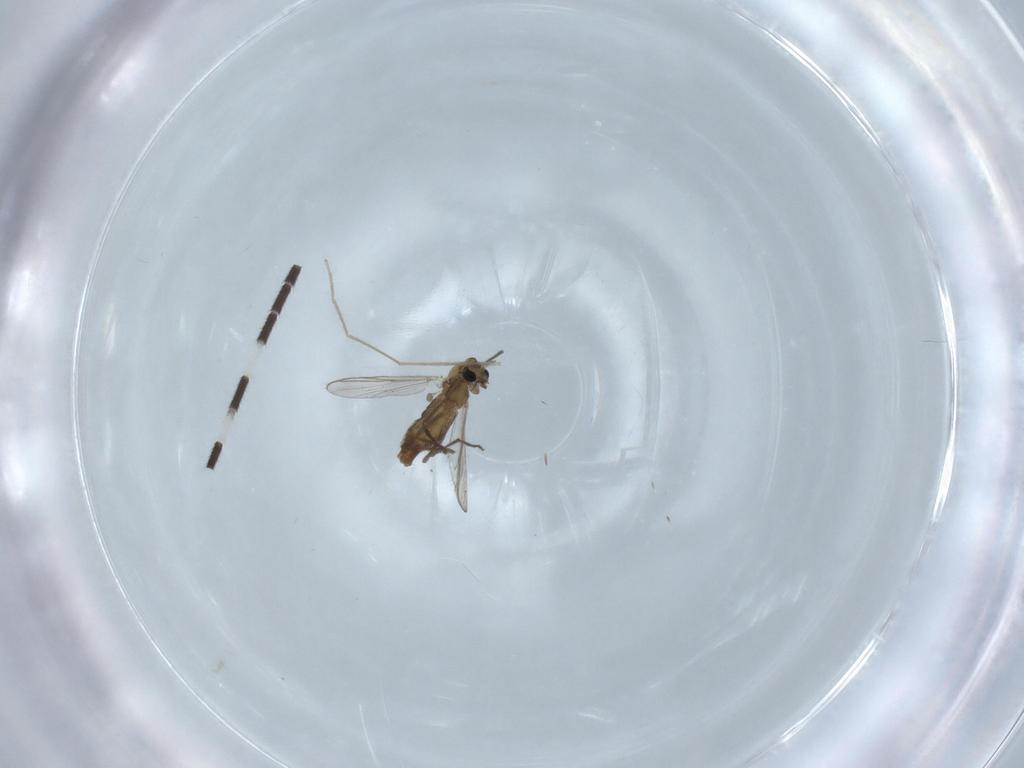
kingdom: Animalia
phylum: Arthropoda
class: Insecta
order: Diptera
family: Chironomidae
